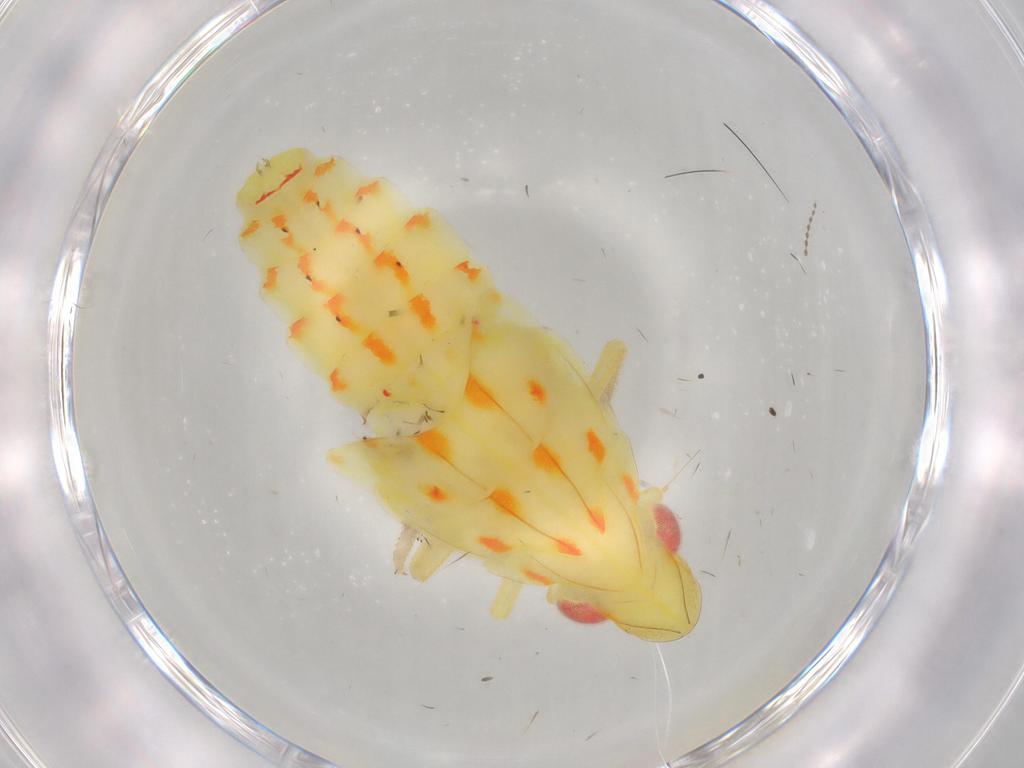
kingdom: Animalia
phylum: Arthropoda
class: Insecta
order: Hemiptera
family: Tropiduchidae
